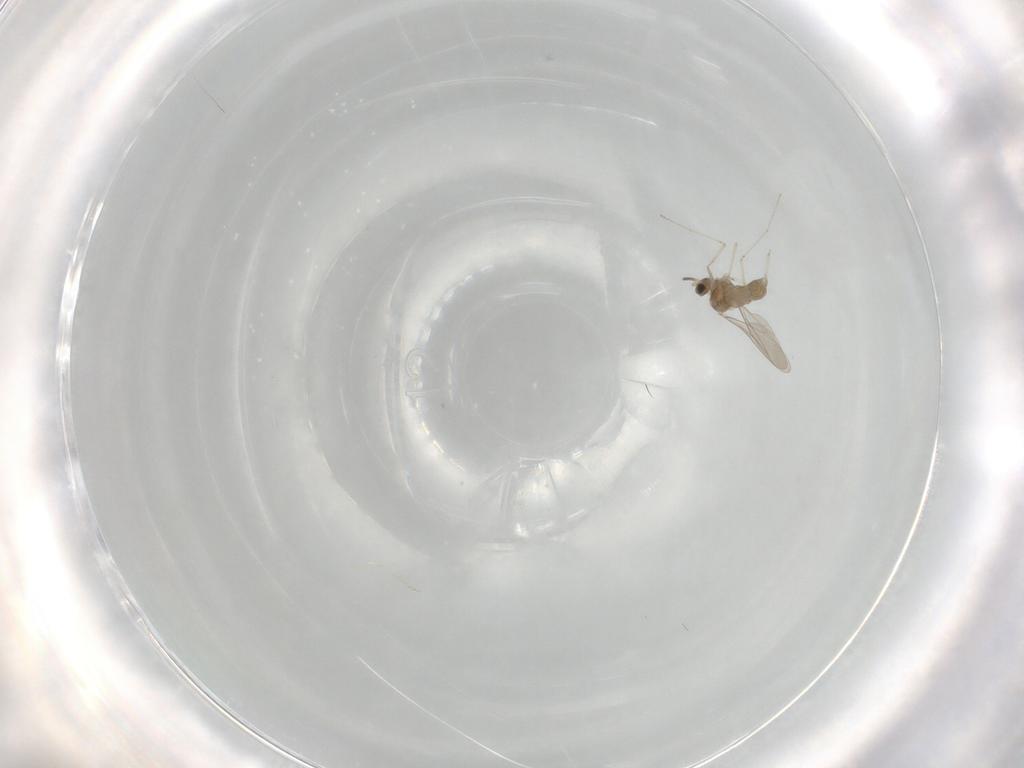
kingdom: Animalia
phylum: Arthropoda
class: Insecta
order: Diptera
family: Cecidomyiidae
